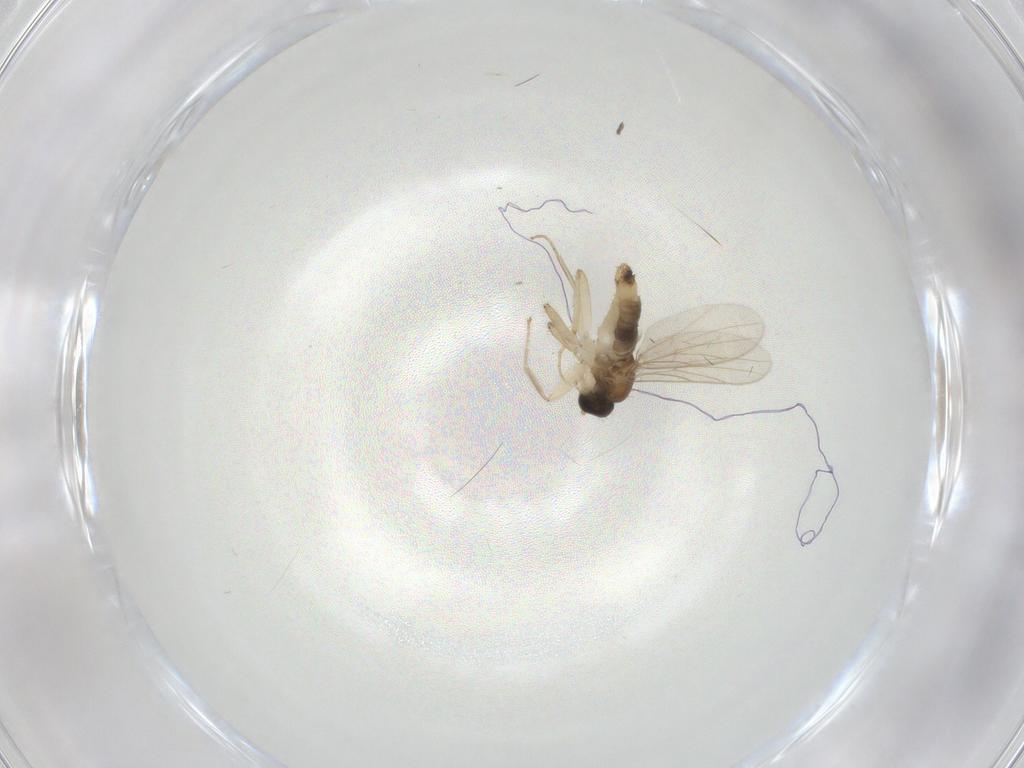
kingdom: Animalia
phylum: Arthropoda
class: Insecta
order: Diptera
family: Hybotidae
